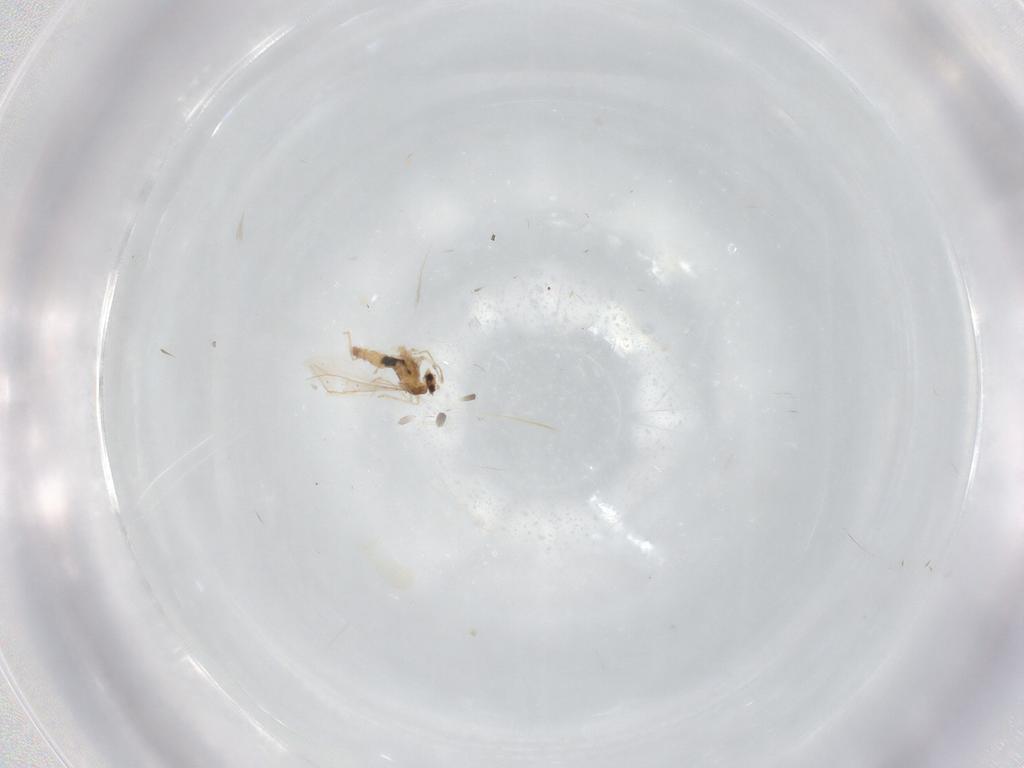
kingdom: Animalia
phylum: Arthropoda
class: Insecta
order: Diptera
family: Cecidomyiidae
